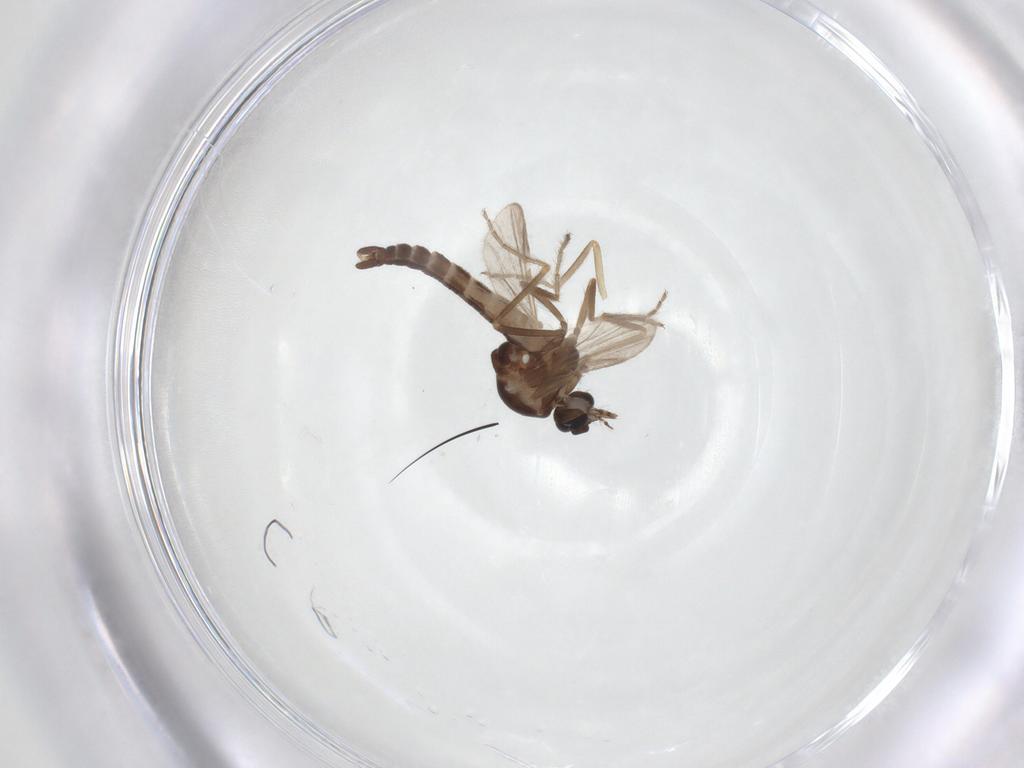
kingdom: Animalia
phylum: Arthropoda
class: Insecta
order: Diptera
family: Ceratopogonidae
